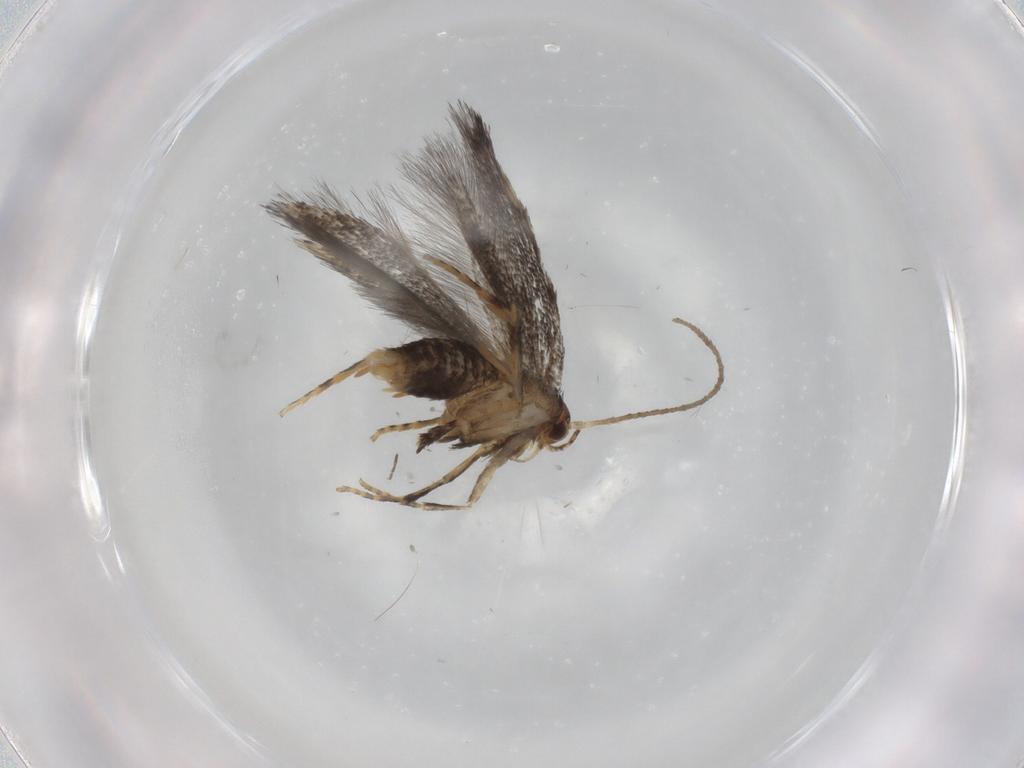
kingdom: Animalia
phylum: Arthropoda
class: Insecta
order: Lepidoptera
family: Gelechiidae
